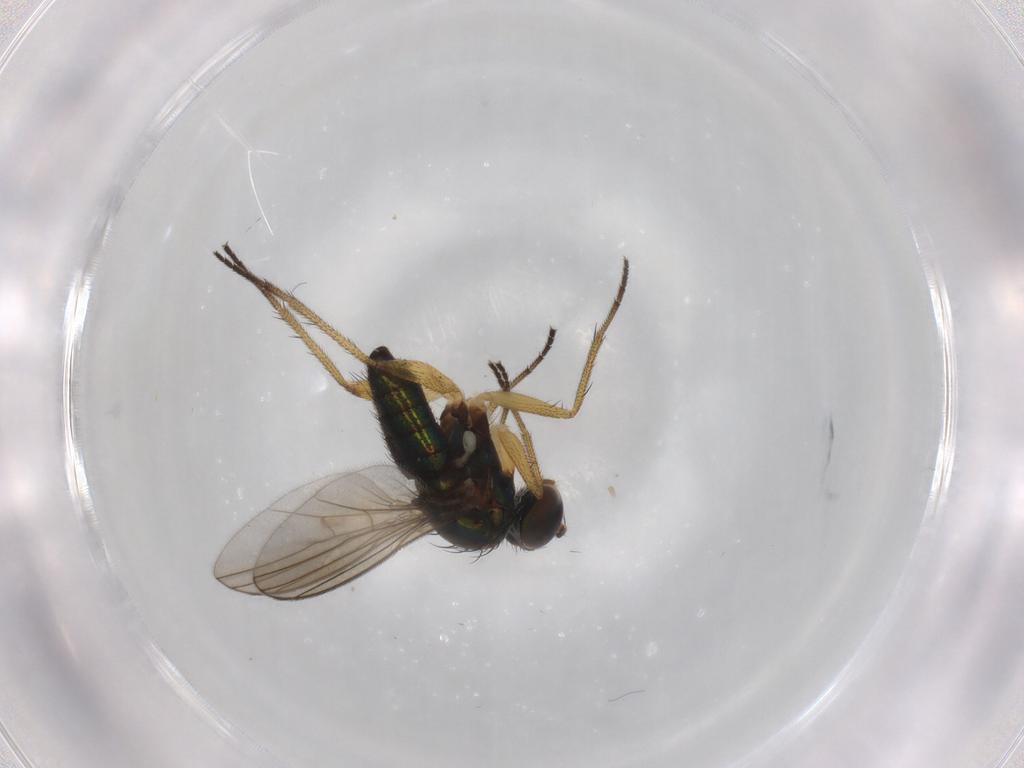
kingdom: Animalia
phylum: Arthropoda
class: Insecta
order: Diptera
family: Dolichopodidae
